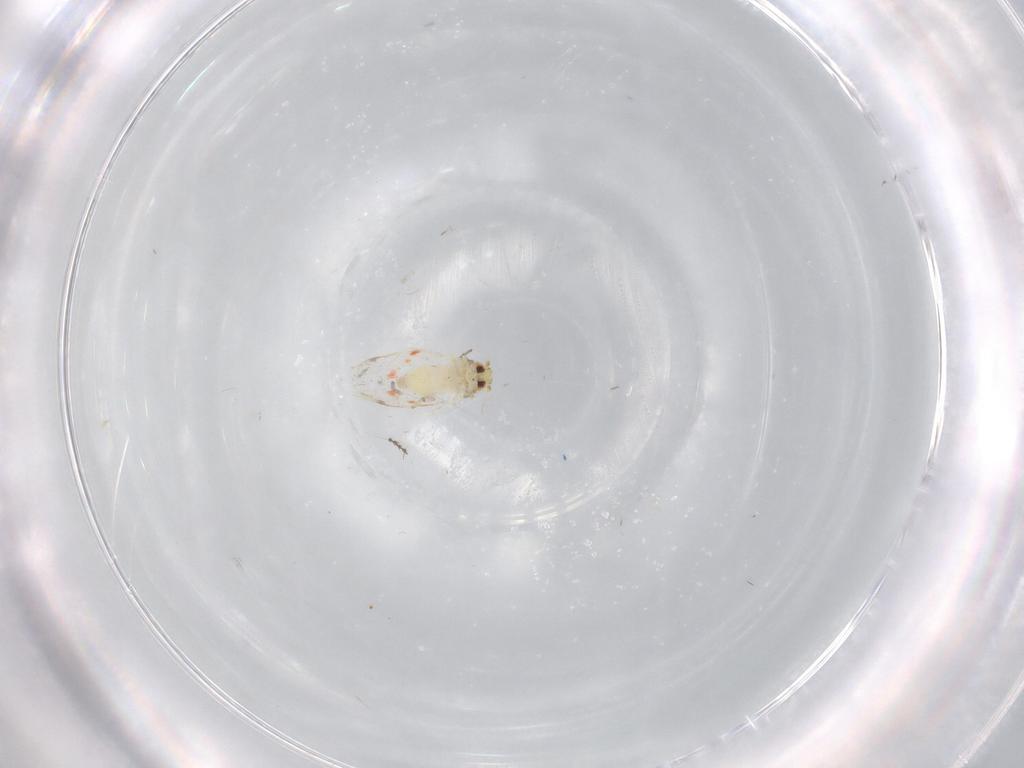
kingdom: Animalia
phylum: Arthropoda
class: Insecta
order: Hemiptera
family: Aleyrodidae
